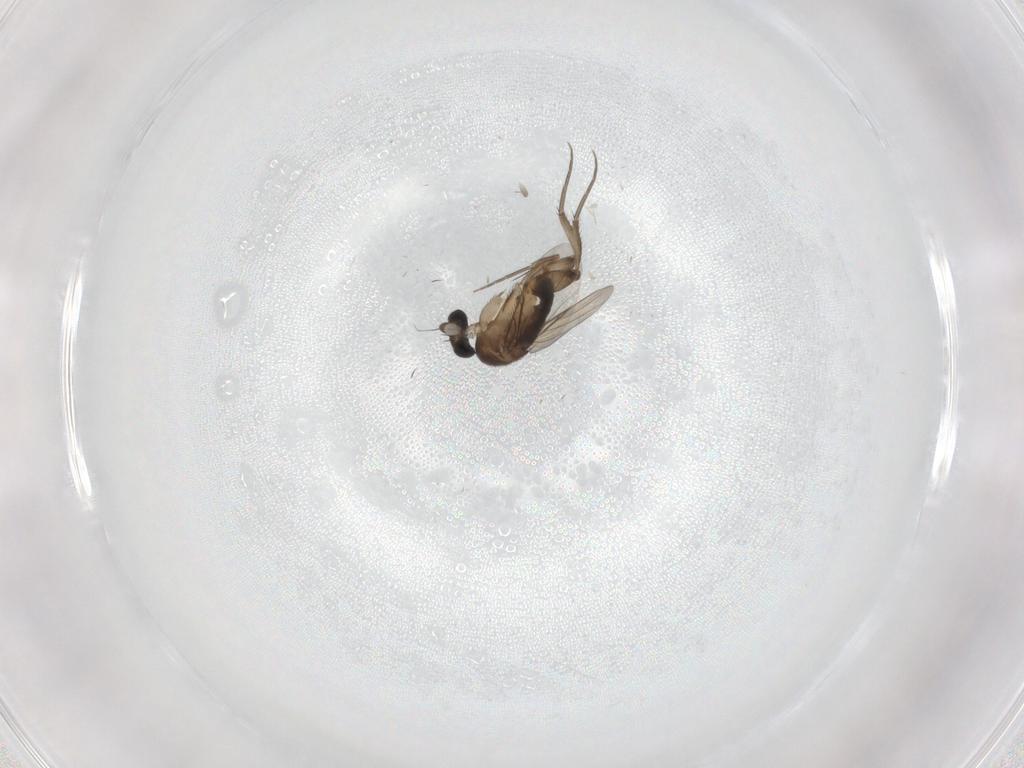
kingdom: Animalia
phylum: Arthropoda
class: Insecta
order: Diptera
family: Phoridae
